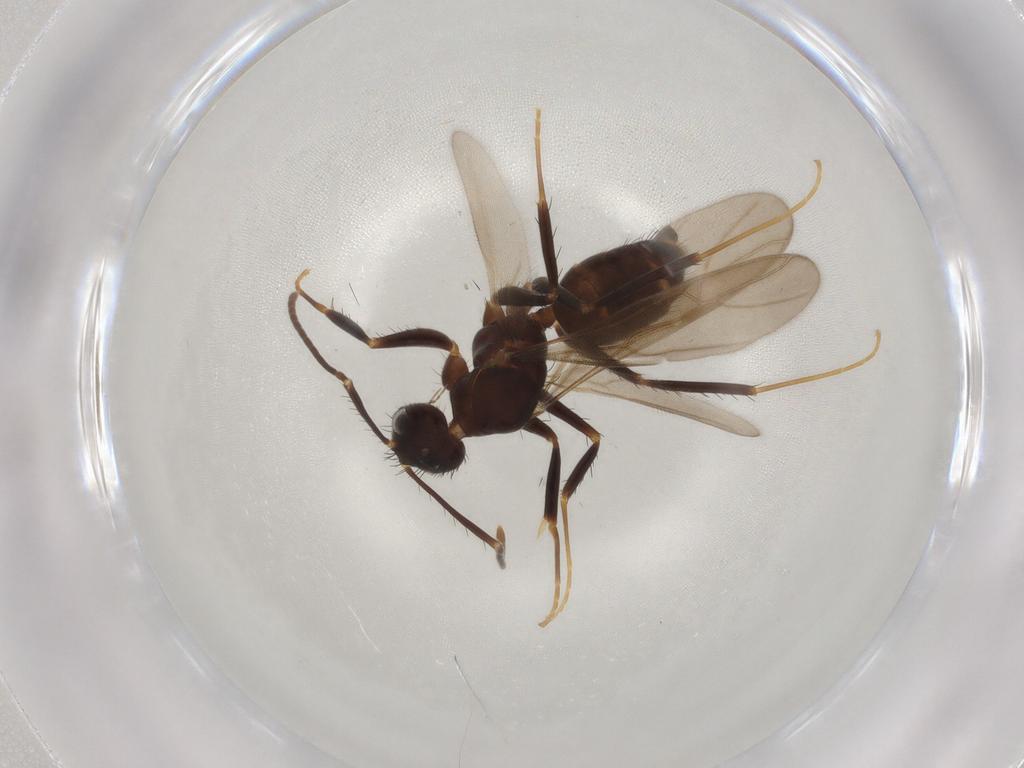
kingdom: Animalia
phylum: Arthropoda
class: Insecta
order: Hymenoptera
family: Formicidae
